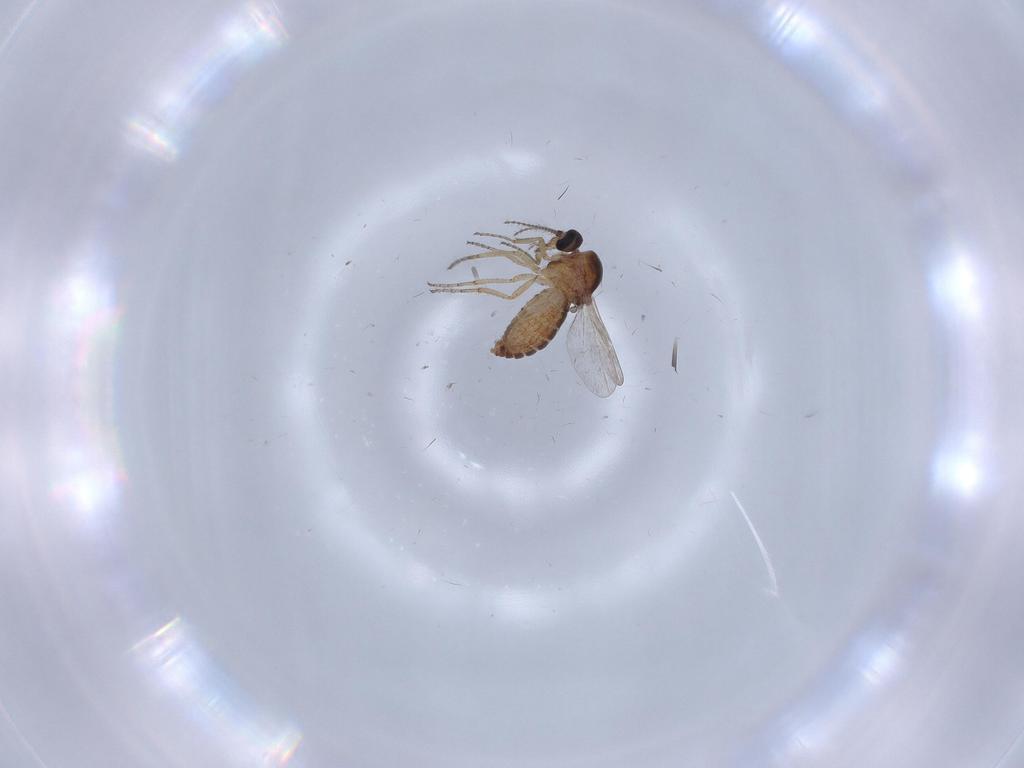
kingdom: Animalia
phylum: Arthropoda
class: Insecta
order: Diptera
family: Ceratopogonidae
